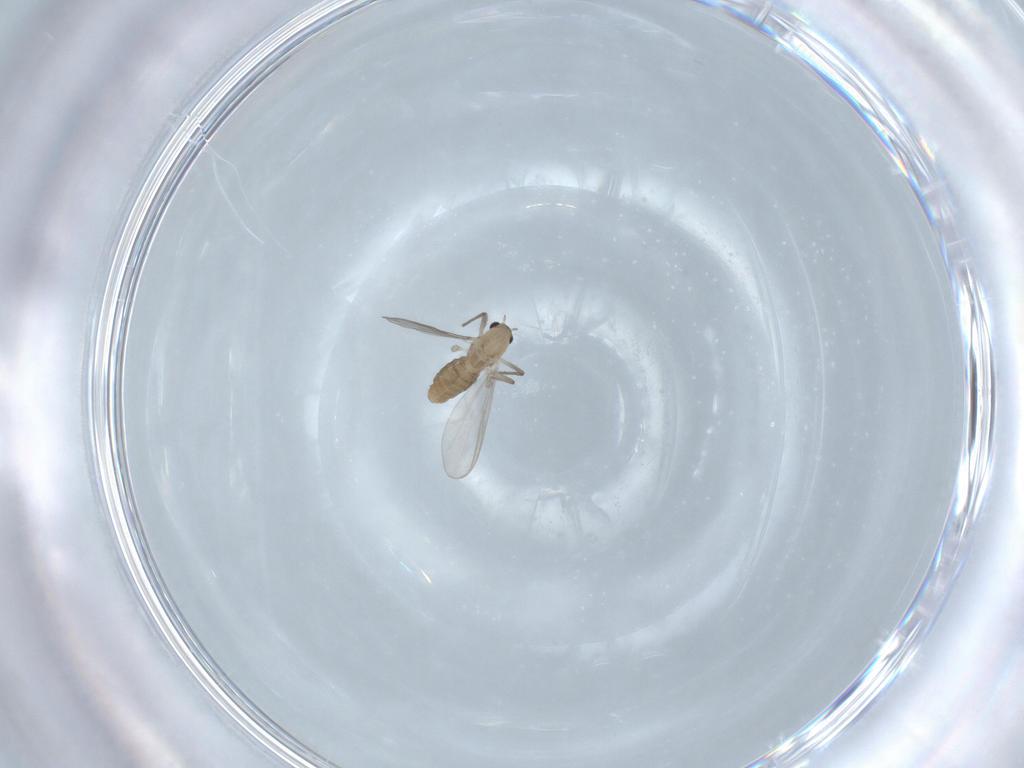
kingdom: Animalia
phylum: Arthropoda
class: Insecta
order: Diptera
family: Chironomidae
